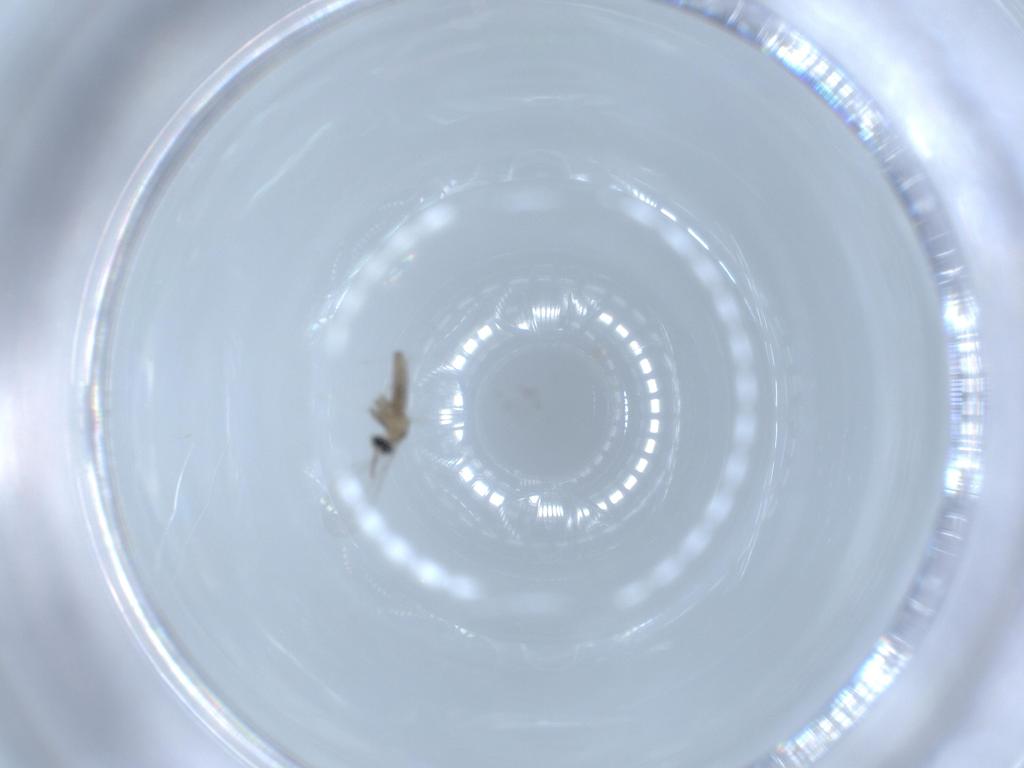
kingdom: Animalia
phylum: Arthropoda
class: Insecta
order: Diptera
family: Cecidomyiidae
